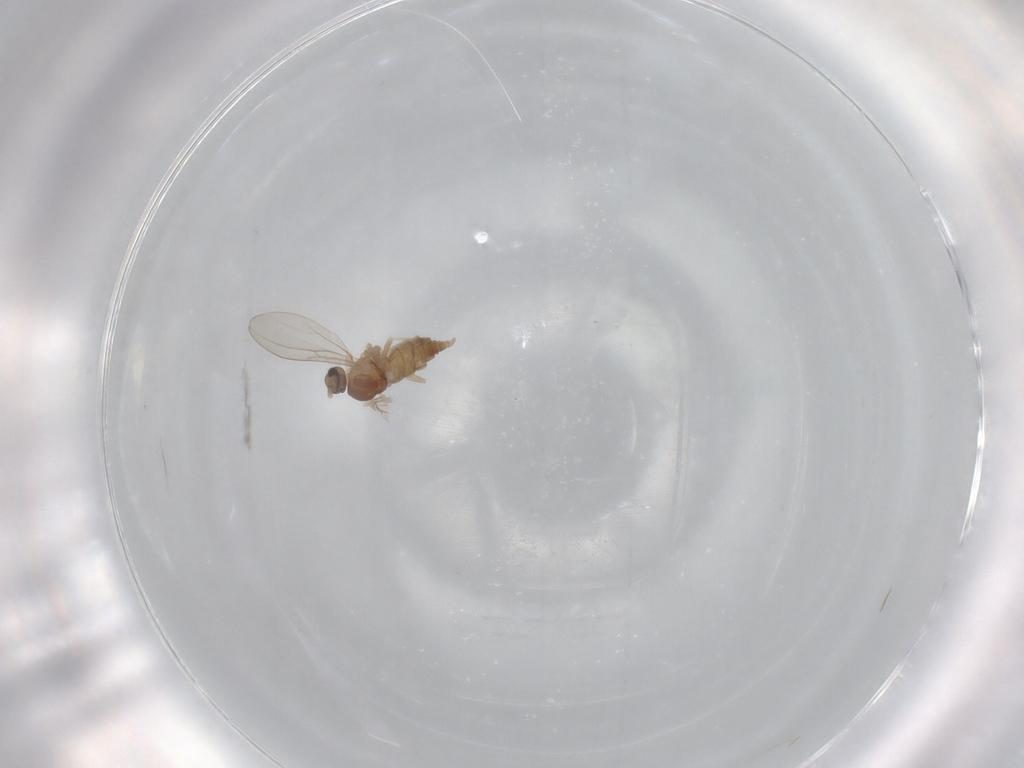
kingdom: Animalia
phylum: Arthropoda
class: Insecta
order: Diptera
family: Cecidomyiidae
